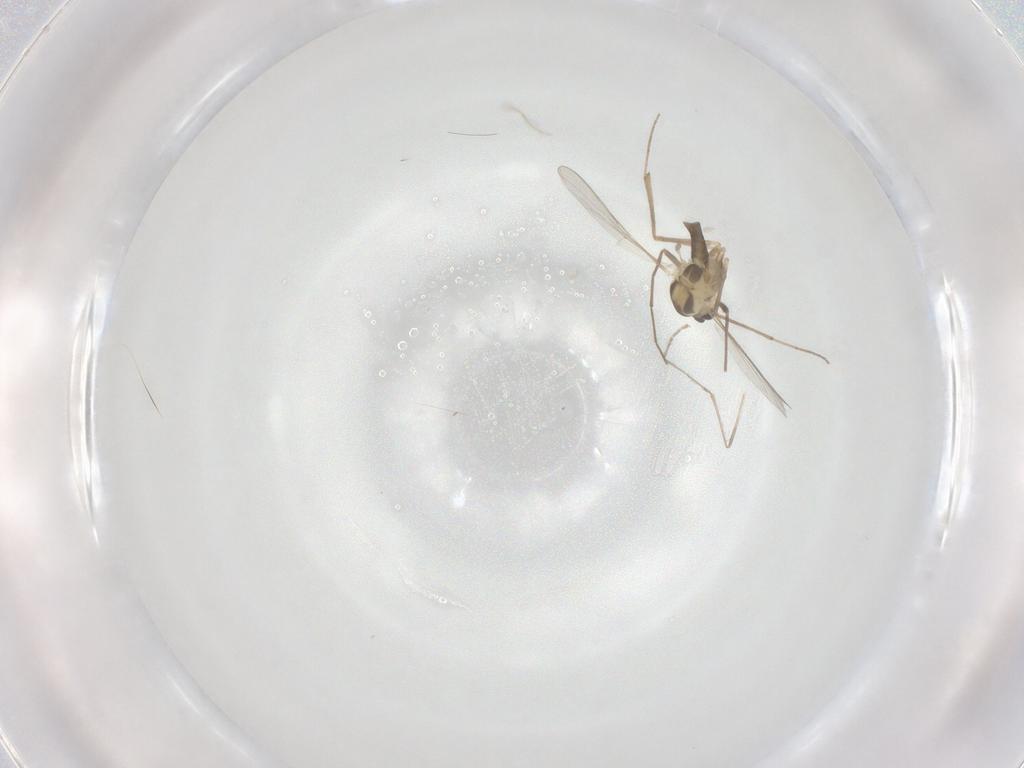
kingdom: Animalia
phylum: Arthropoda
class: Insecta
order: Diptera
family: Chironomidae
